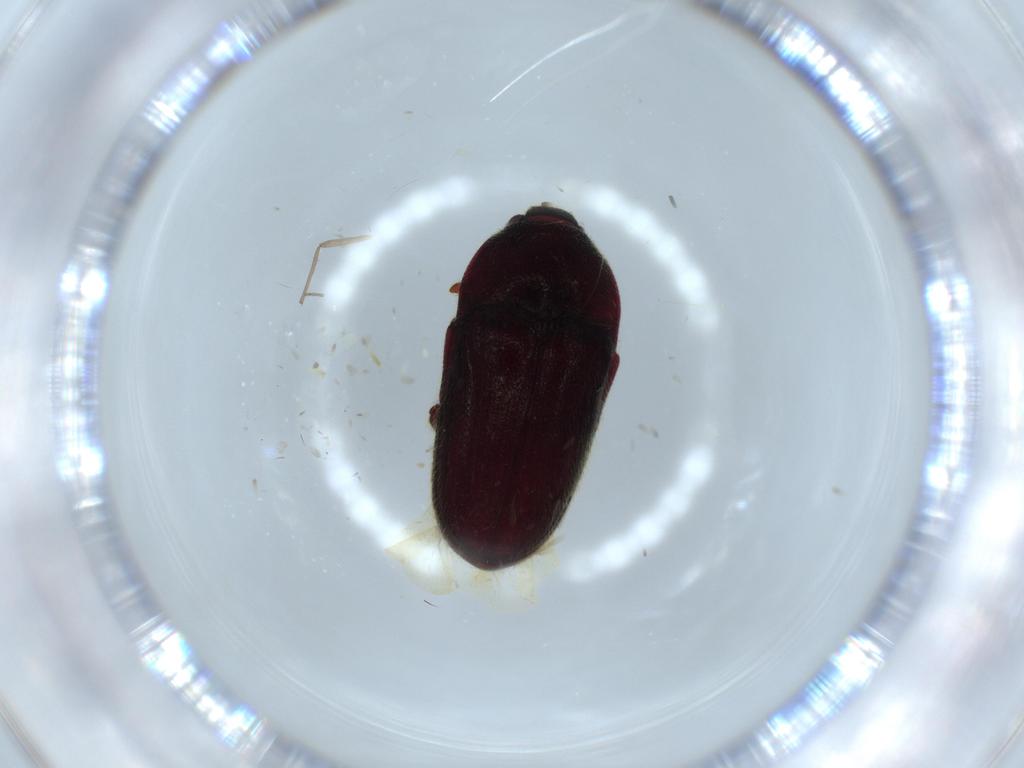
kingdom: Animalia
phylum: Arthropoda
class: Insecta
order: Coleoptera
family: Throscidae
